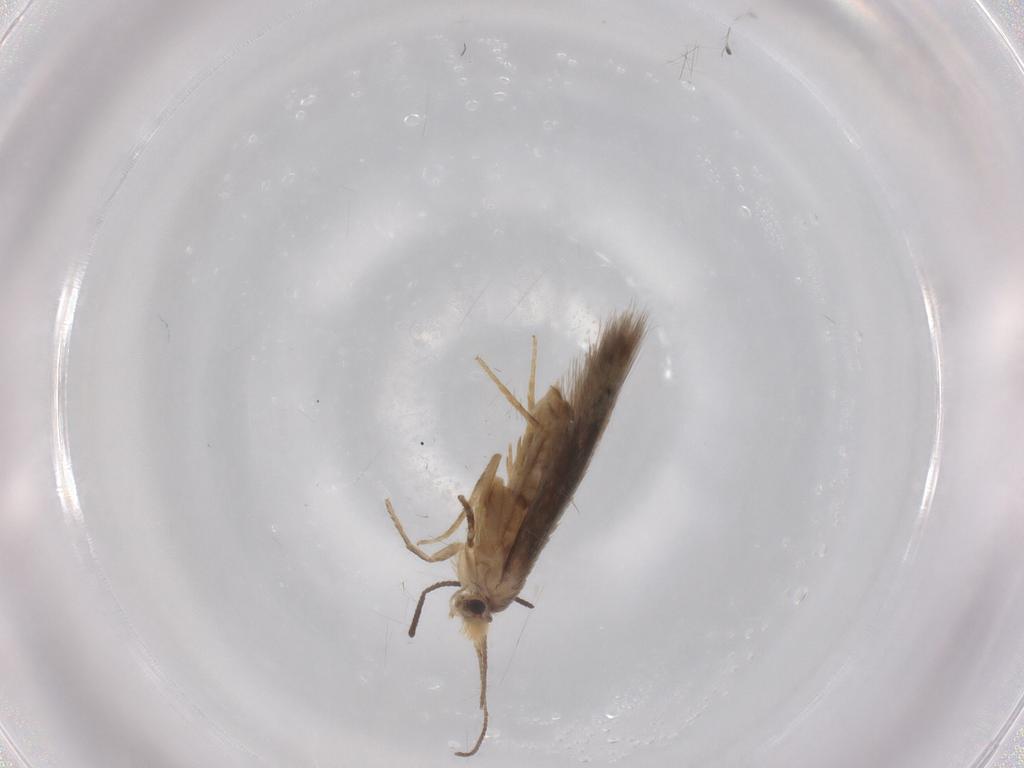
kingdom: Animalia
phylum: Arthropoda
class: Insecta
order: Lepidoptera
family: Nepticulidae
